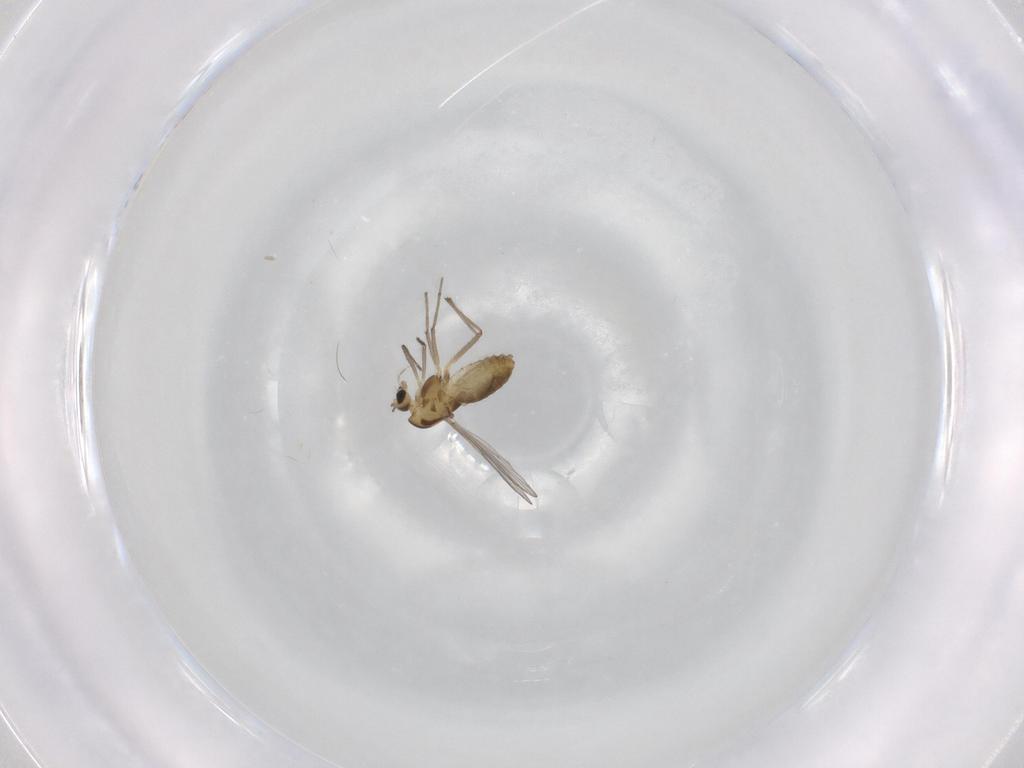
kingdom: Animalia
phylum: Arthropoda
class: Insecta
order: Diptera
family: Chironomidae
